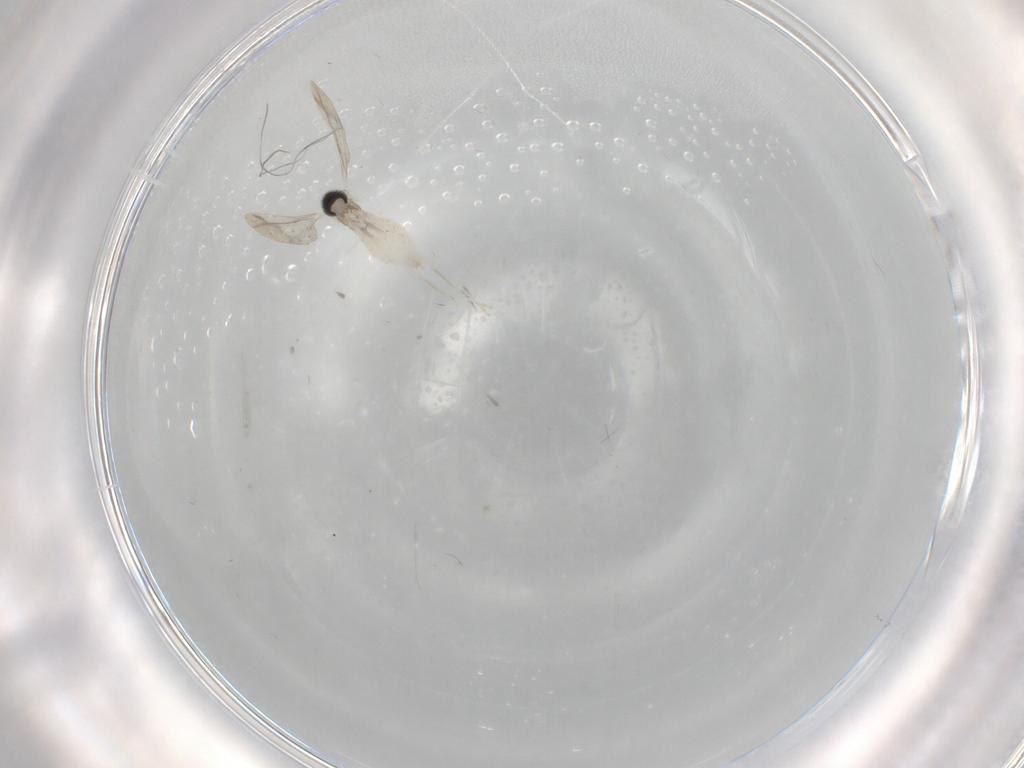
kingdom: Animalia
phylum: Arthropoda
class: Insecta
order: Diptera
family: Cecidomyiidae
